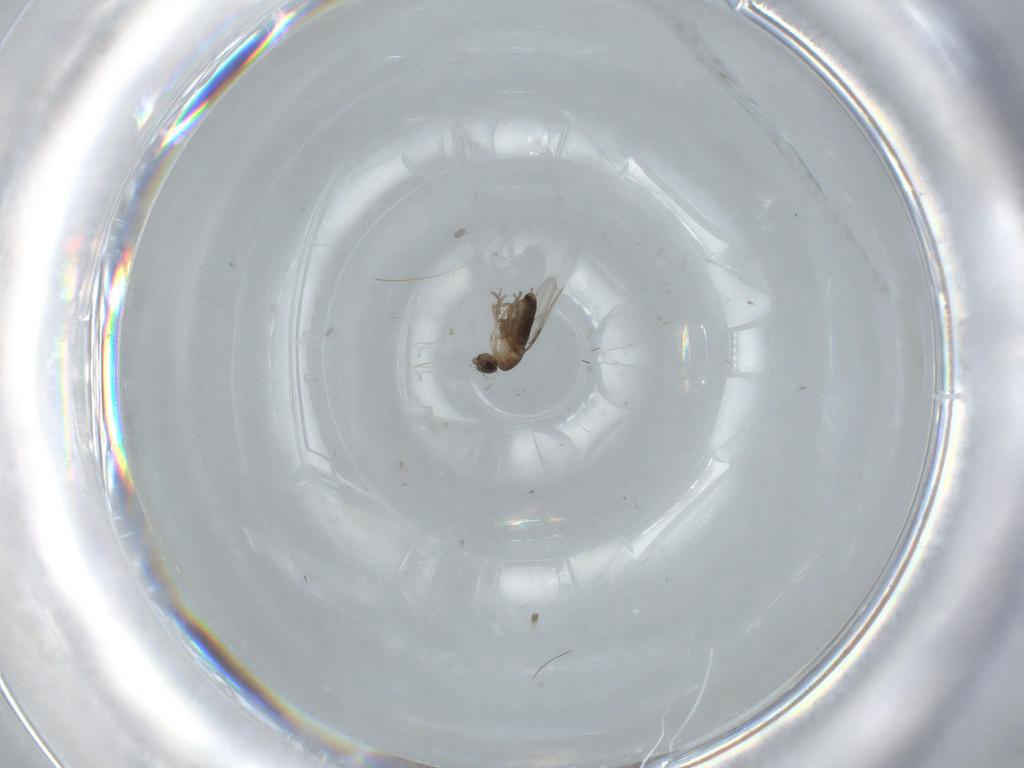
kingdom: Animalia
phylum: Arthropoda
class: Insecta
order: Diptera
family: Phoridae
